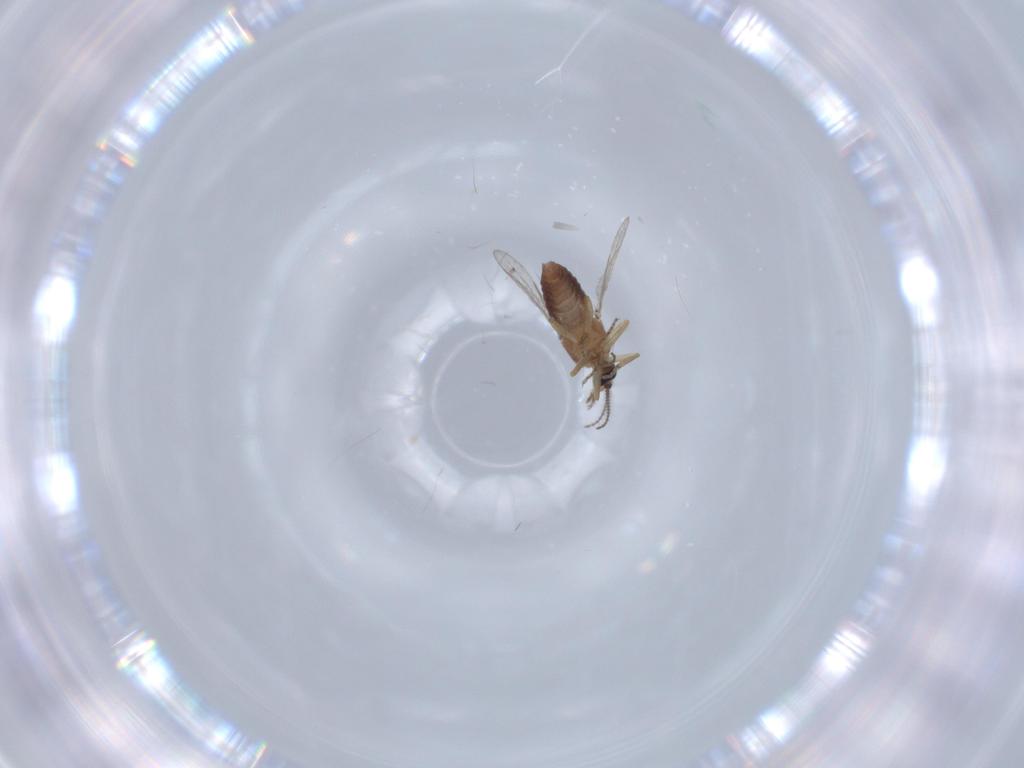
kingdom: Animalia
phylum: Arthropoda
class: Insecta
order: Diptera
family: Ceratopogonidae
